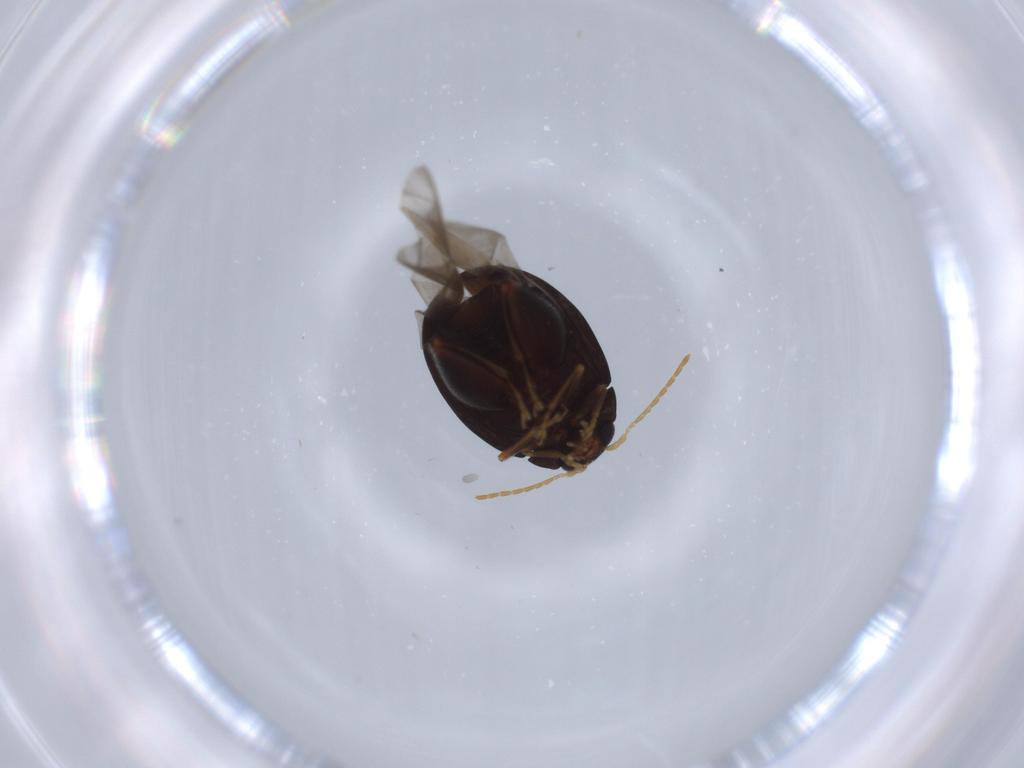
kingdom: Animalia
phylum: Arthropoda
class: Insecta
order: Coleoptera
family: Chrysomelidae
